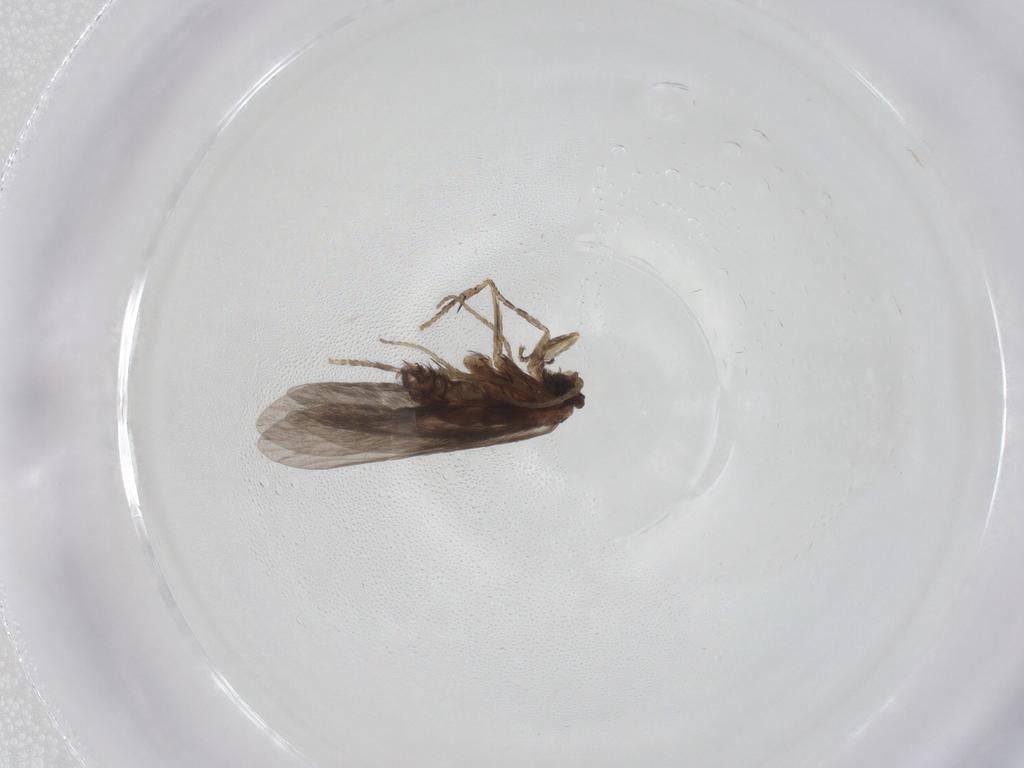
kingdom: Animalia
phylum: Arthropoda
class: Insecta
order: Trichoptera
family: Glossosomatidae
